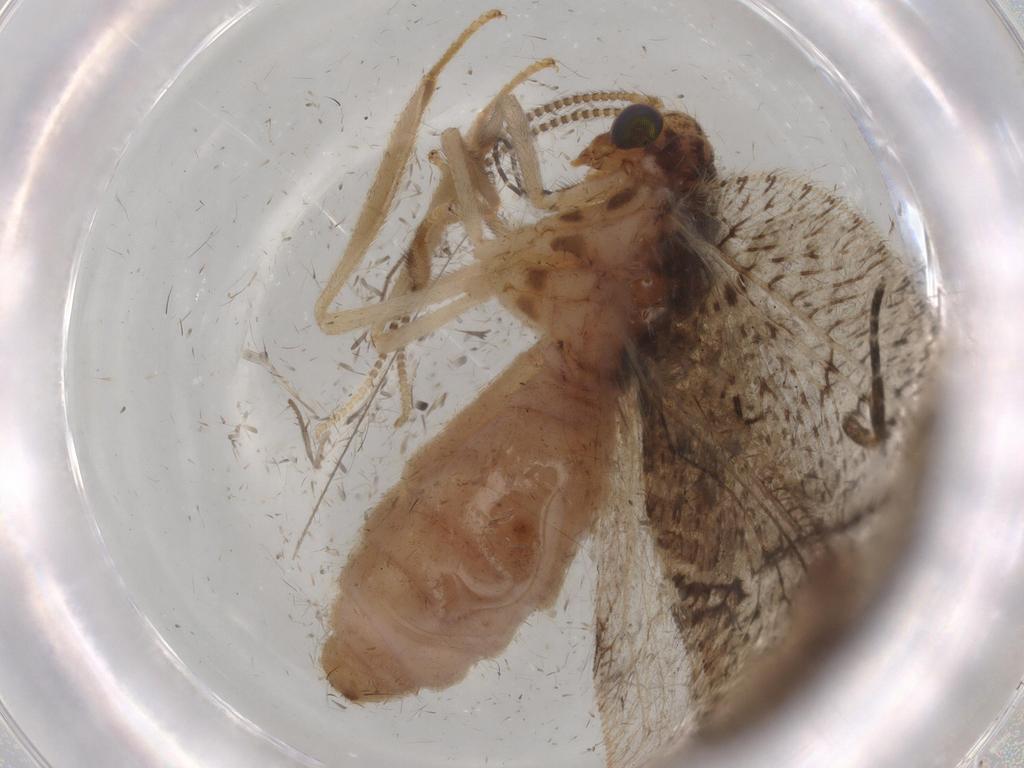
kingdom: Animalia
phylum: Arthropoda
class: Insecta
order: Neuroptera
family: Hemerobiidae
